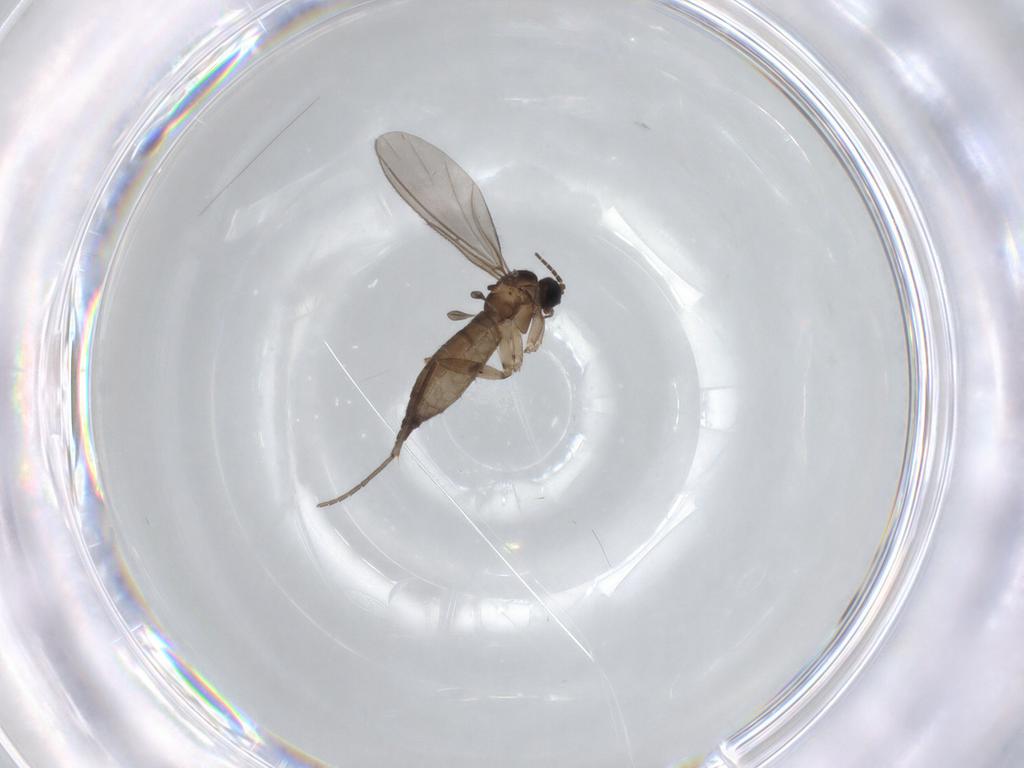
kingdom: Animalia
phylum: Arthropoda
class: Insecta
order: Diptera
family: Sciaridae
